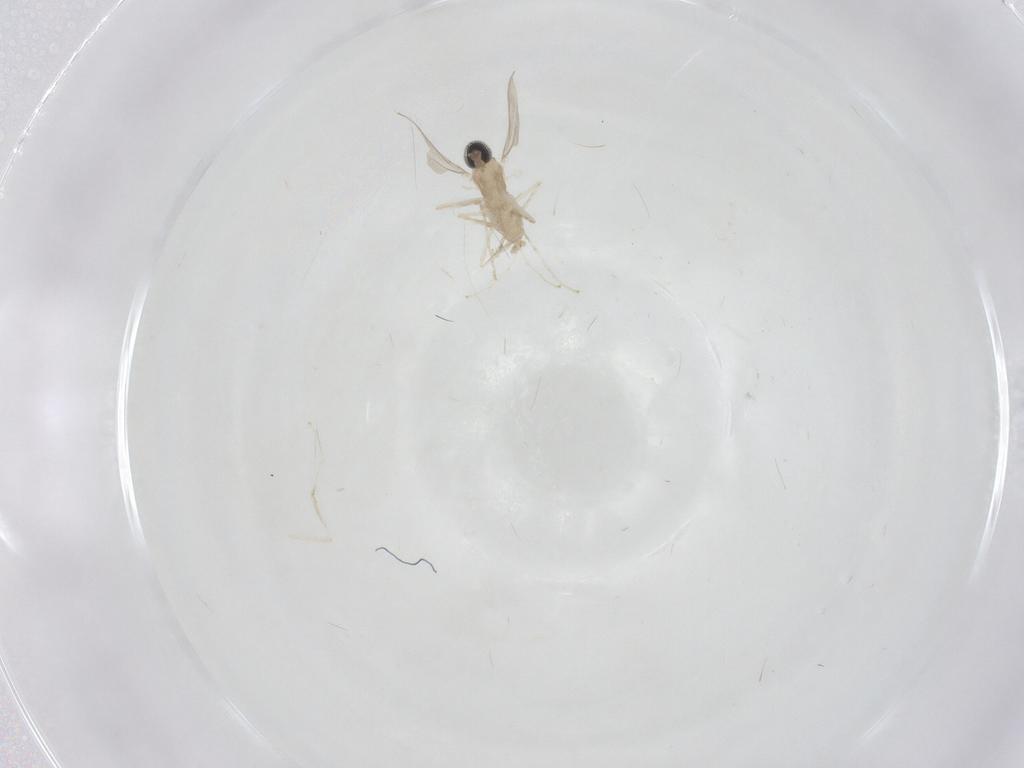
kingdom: Animalia
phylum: Arthropoda
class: Insecta
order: Diptera
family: Cecidomyiidae
